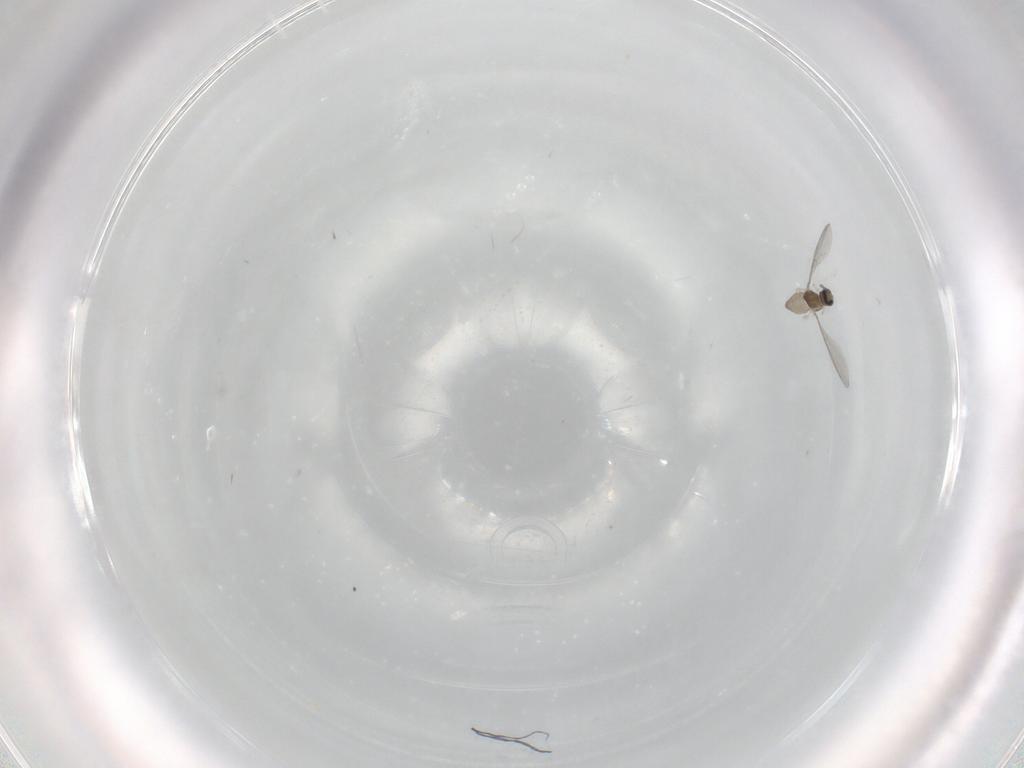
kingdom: Animalia
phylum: Arthropoda
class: Insecta
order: Diptera
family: Cecidomyiidae
